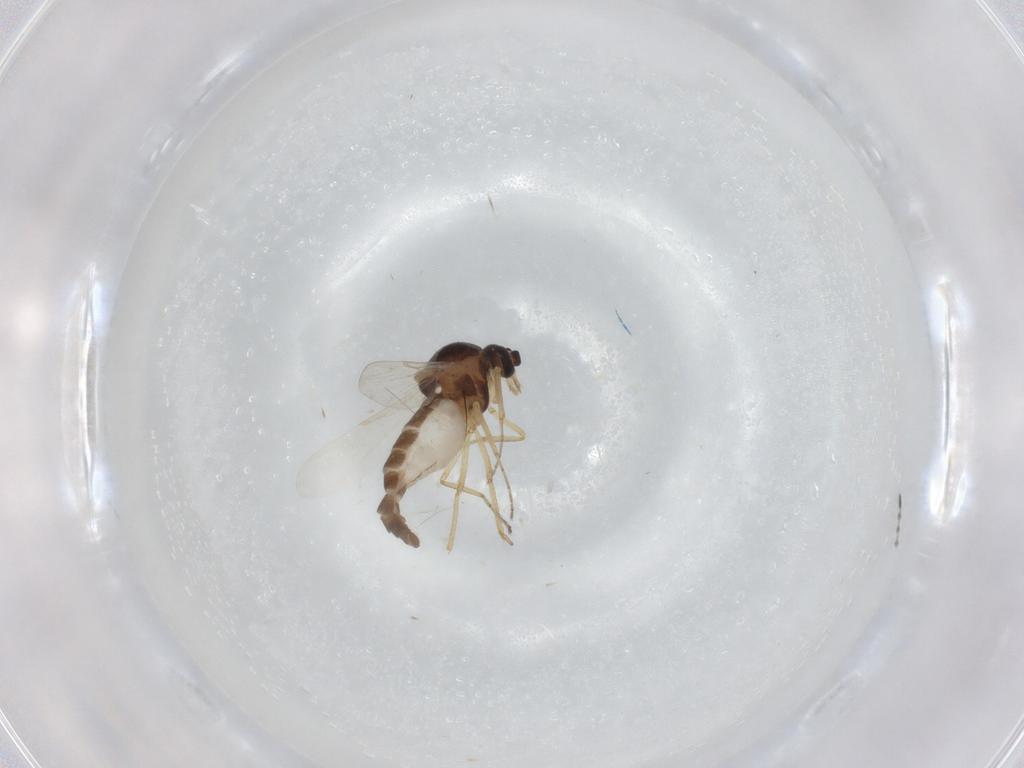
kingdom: Animalia
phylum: Arthropoda
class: Insecta
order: Diptera
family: Chironomidae
